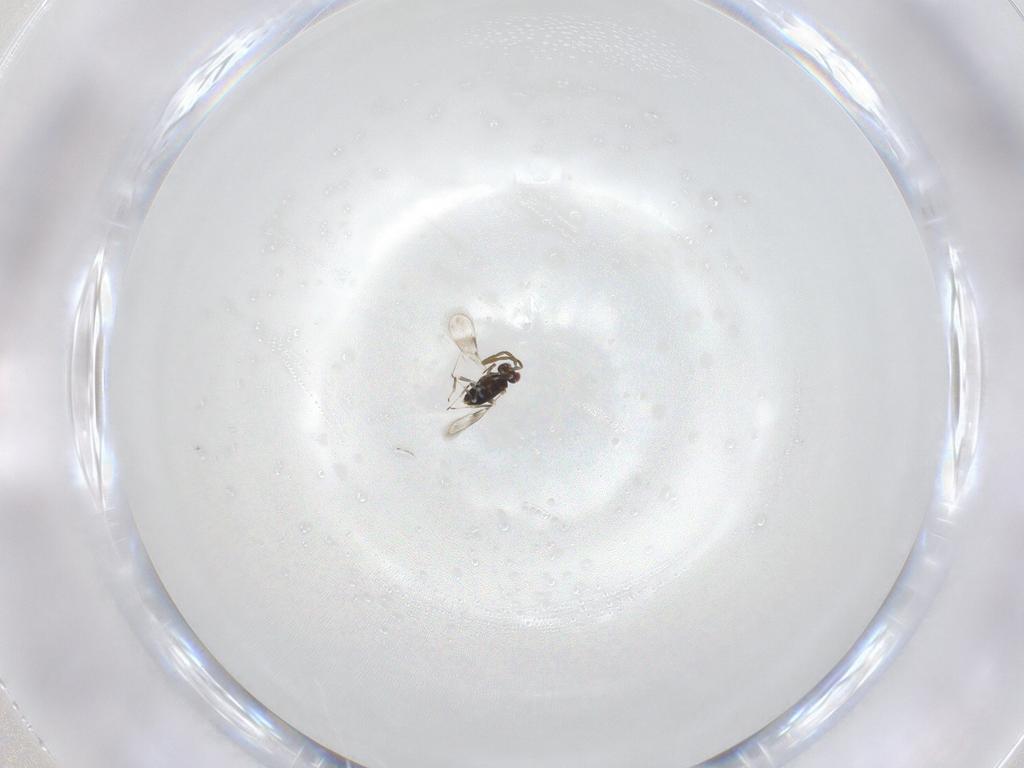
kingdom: Animalia
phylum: Arthropoda
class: Insecta
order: Hymenoptera
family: Azotidae
